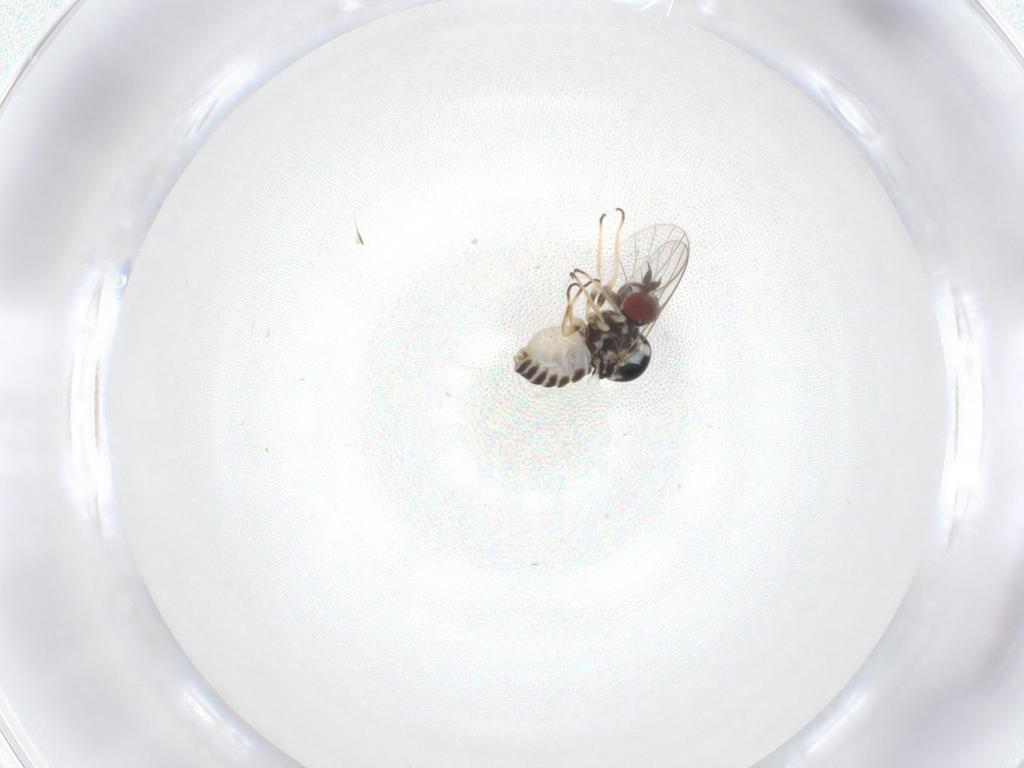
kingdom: Animalia
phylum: Arthropoda
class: Insecta
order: Diptera
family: Bombyliidae
